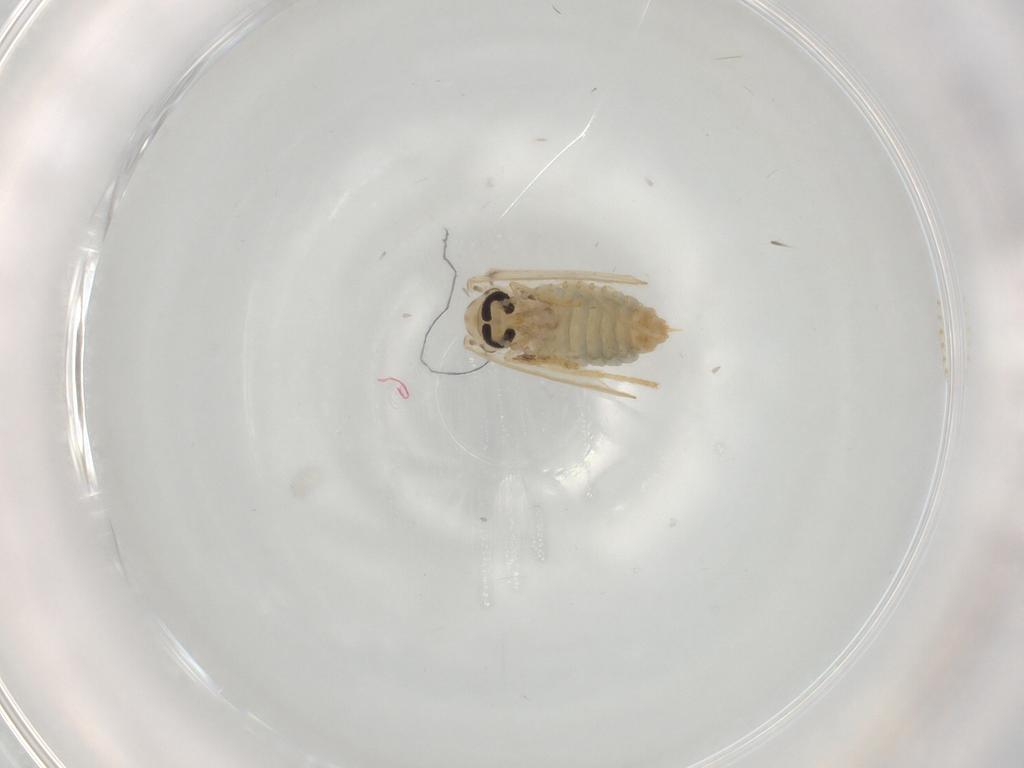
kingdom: Animalia
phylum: Arthropoda
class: Insecta
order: Diptera
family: Psychodidae
